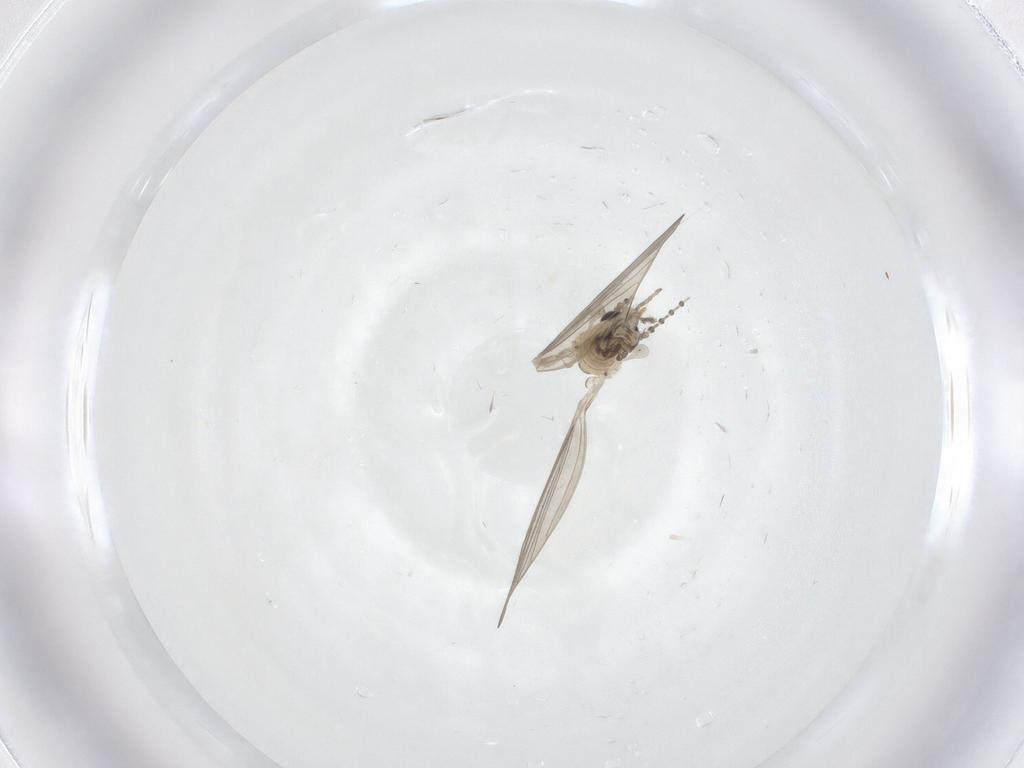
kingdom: Animalia
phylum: Arthropoda
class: Insecta
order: Diptera
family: Psychodidae
